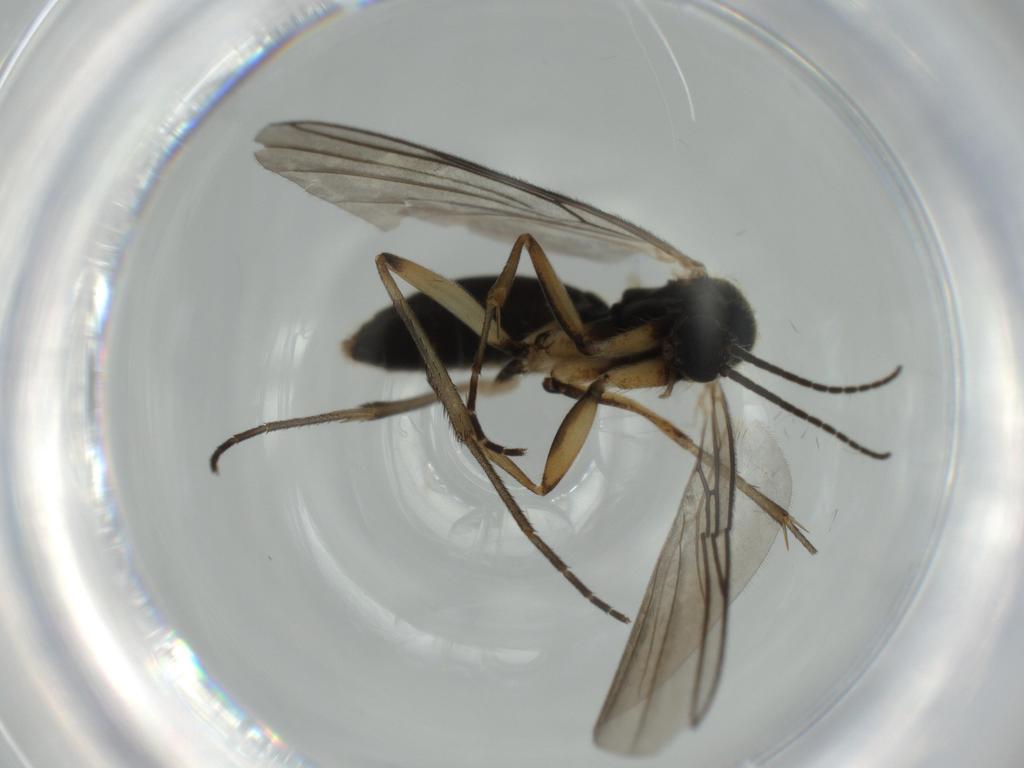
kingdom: Animalia
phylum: Arthropoda
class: Insecta
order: Diptera
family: Mycetophilidae
